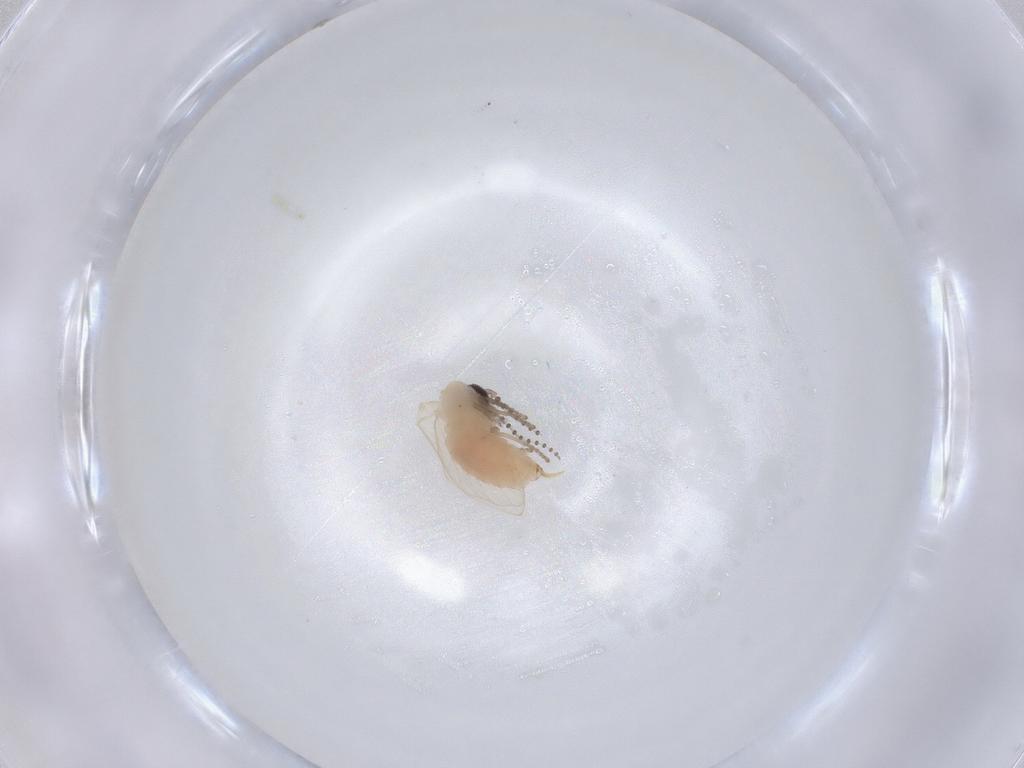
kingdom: Animalia
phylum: Arthropoda
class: Insecta
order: Diptera
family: Psychodidae
